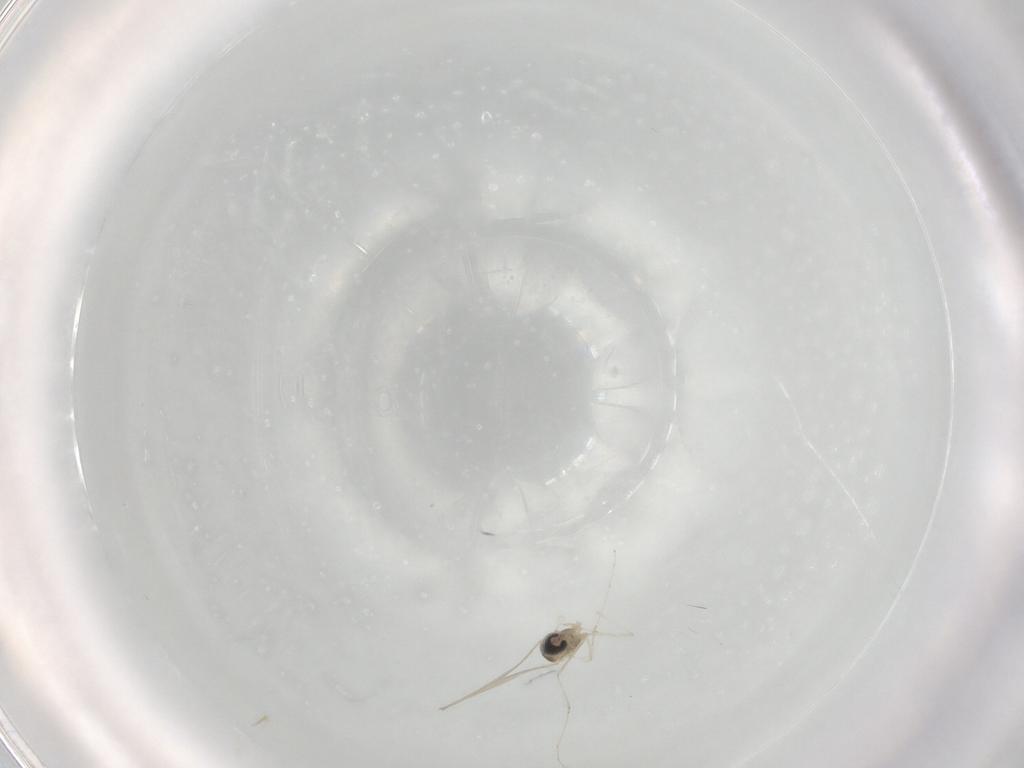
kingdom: Animalia
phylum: Arthropoda
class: Insecta
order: Diptera
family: Cecidomyiidae
